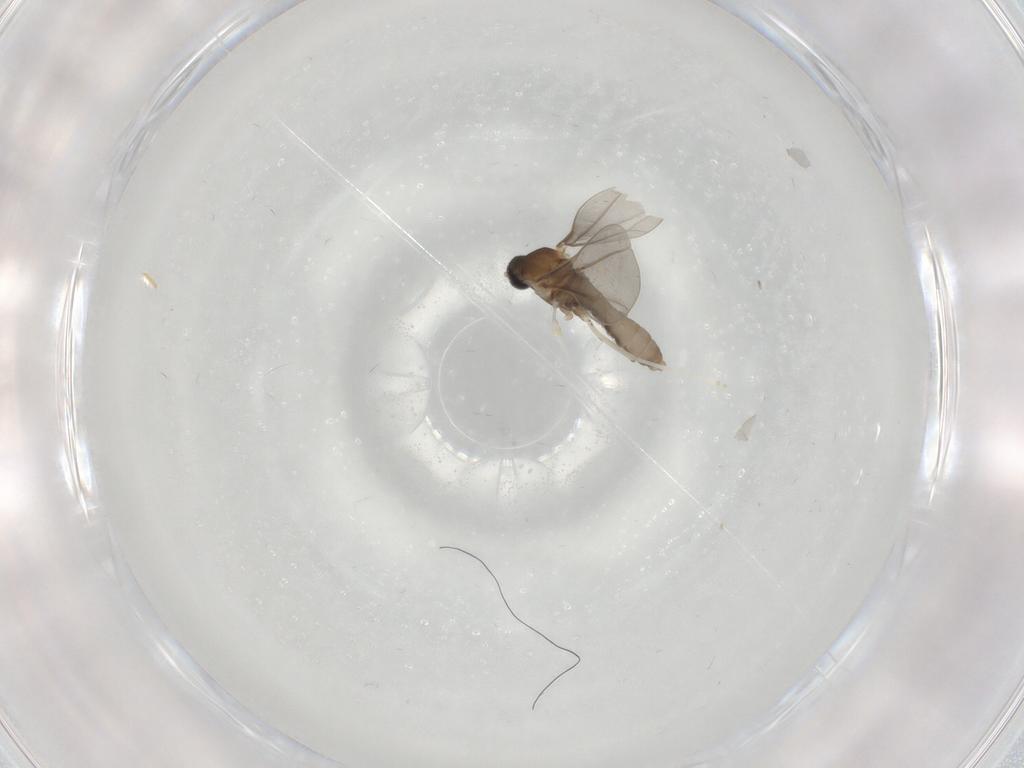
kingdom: Animalia
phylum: Arthropoda
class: Insecta
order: Diptera
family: Cecidomyiidae
